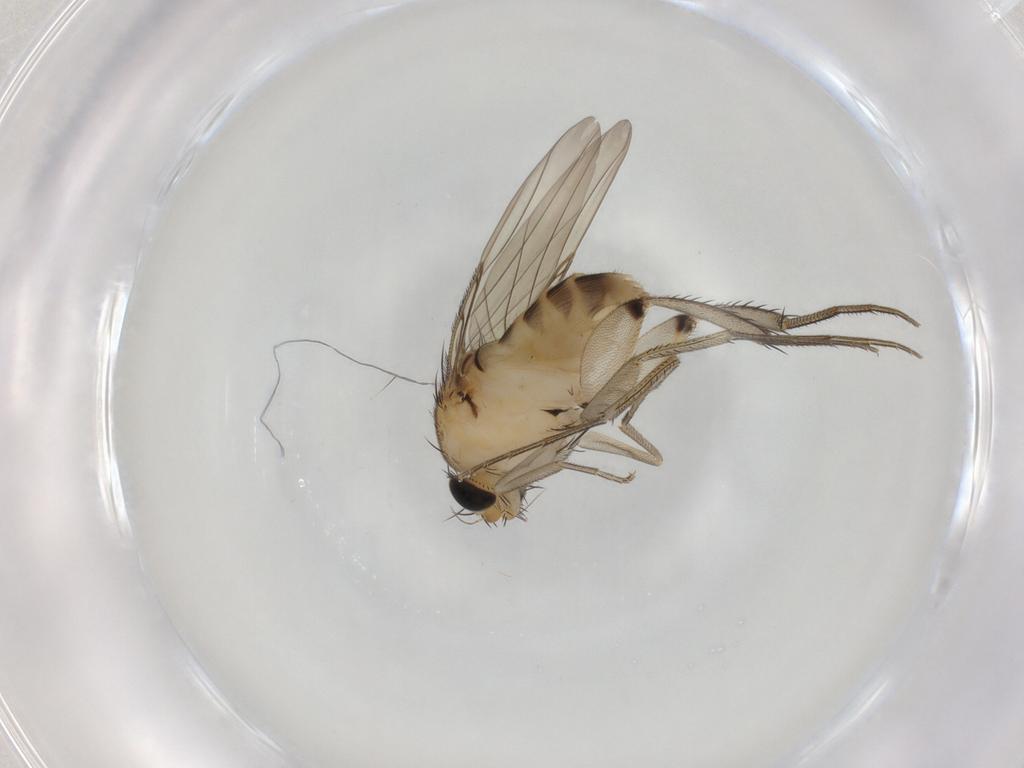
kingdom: Animalia
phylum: Arthropoda
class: Insecta
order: Diptera
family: Phoridae
